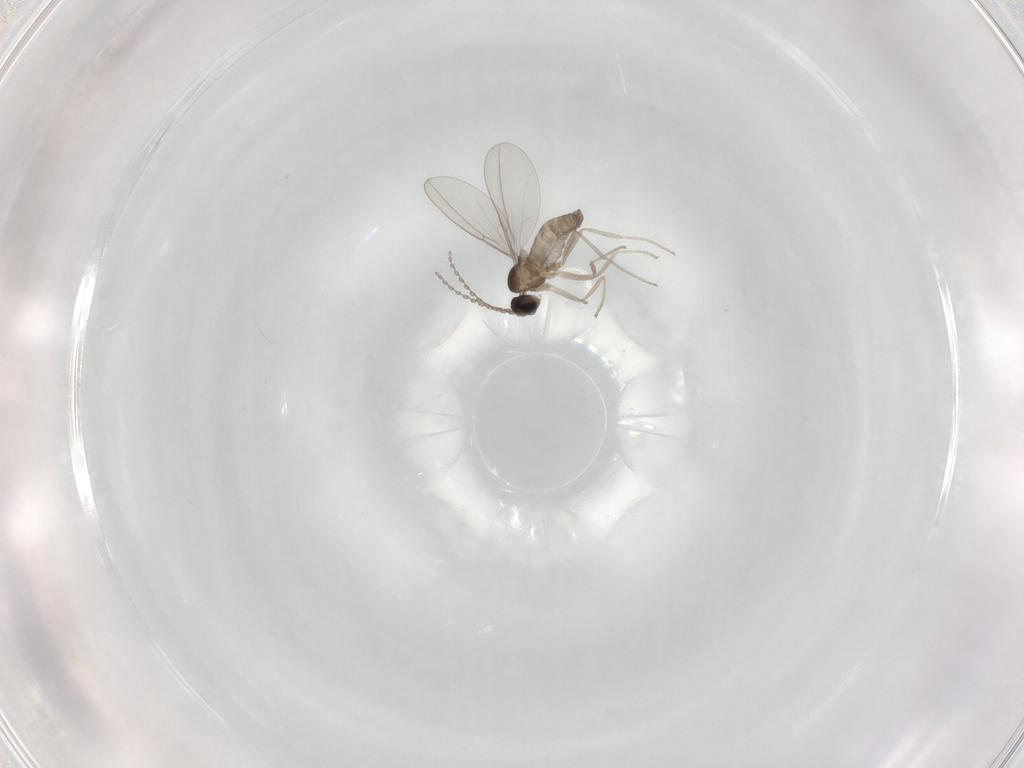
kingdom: Animalia
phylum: Arthropoda
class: Insecta
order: Diptera
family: Cecidomyiidae
